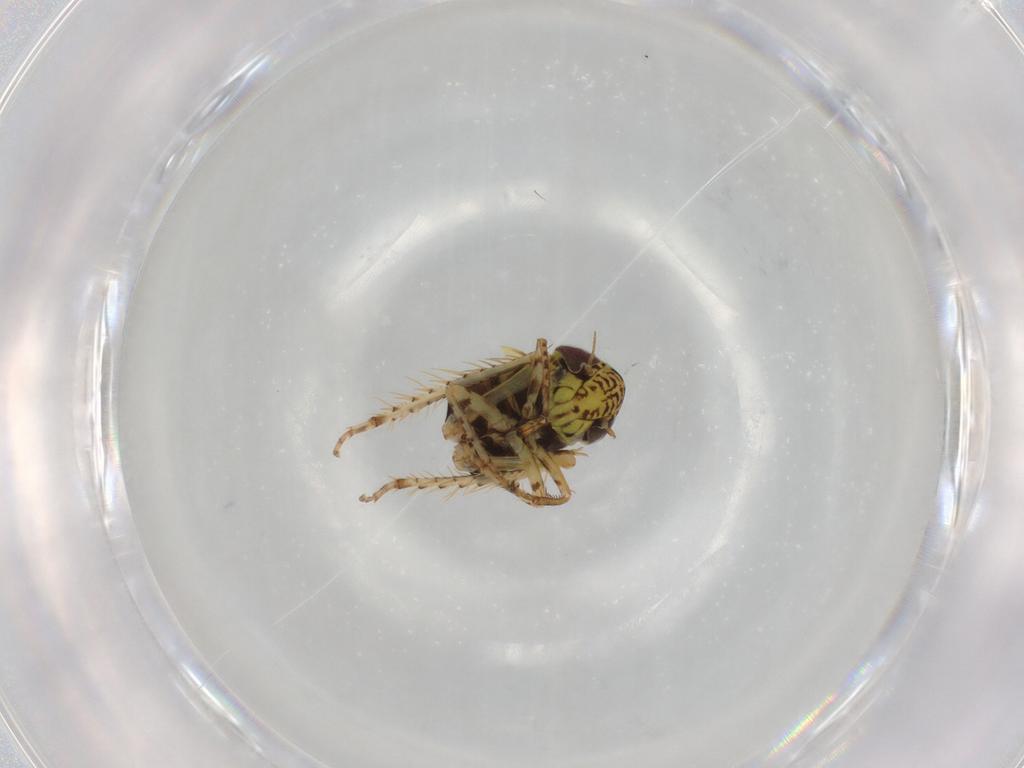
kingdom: Animalia
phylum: Arthropoda
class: Insecta
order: Hemiptera
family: Cicadellidae
